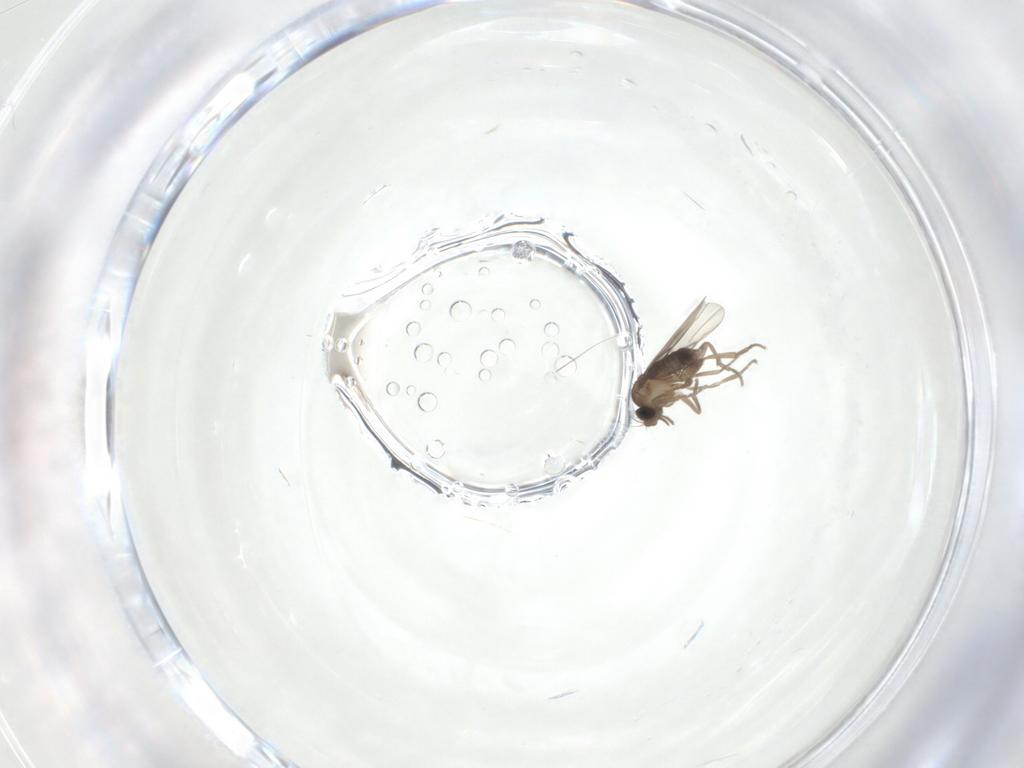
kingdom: Animalia
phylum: Arthropoda
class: Insecta
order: Diptera
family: Phoridae
